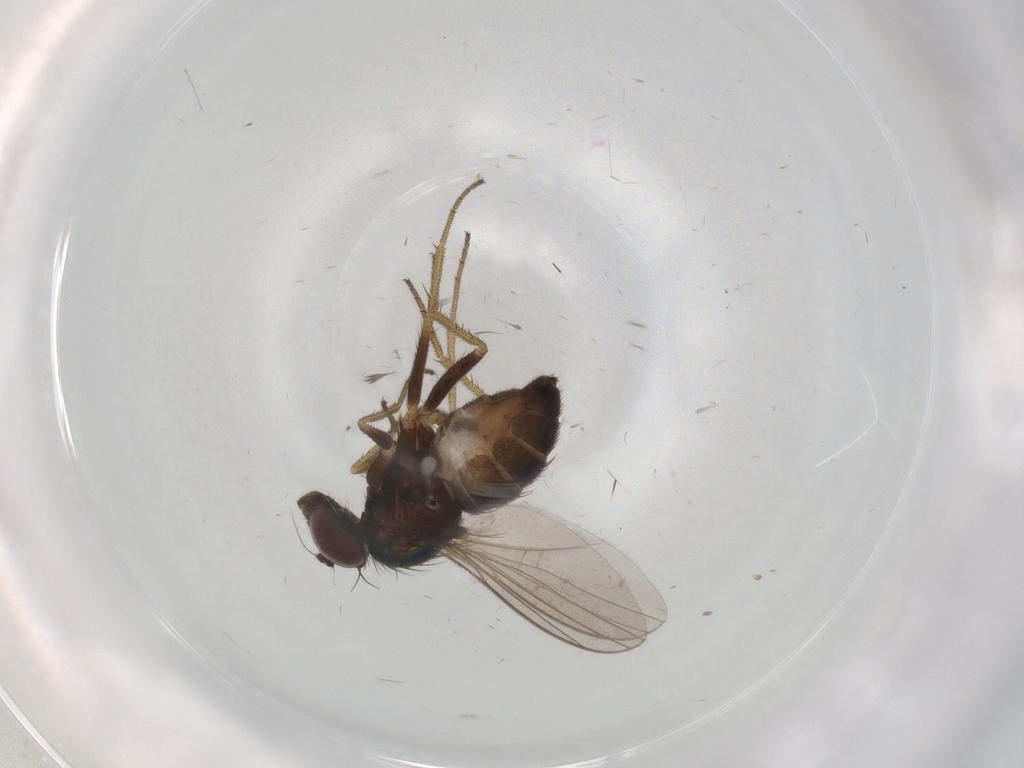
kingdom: Animalia
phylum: Arthropoda
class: Insecta
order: Diptera
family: Dolichopodidae
